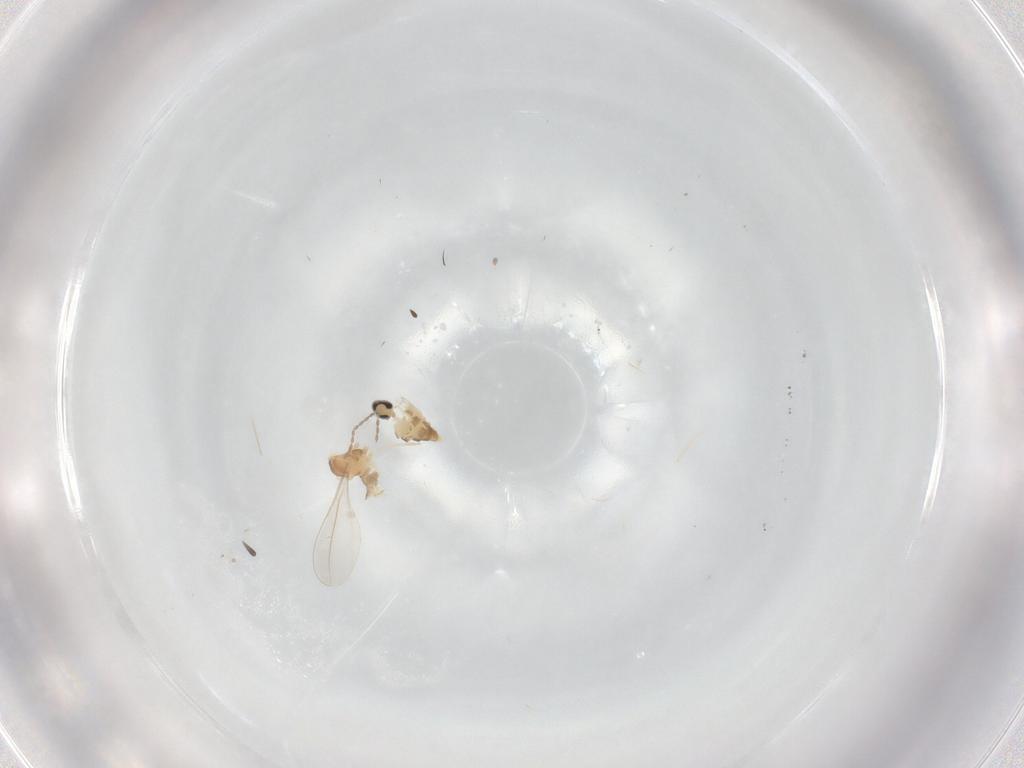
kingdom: Animalia
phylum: Arthropoda
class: Insecta
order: Diptera
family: Cecidomyiidae
